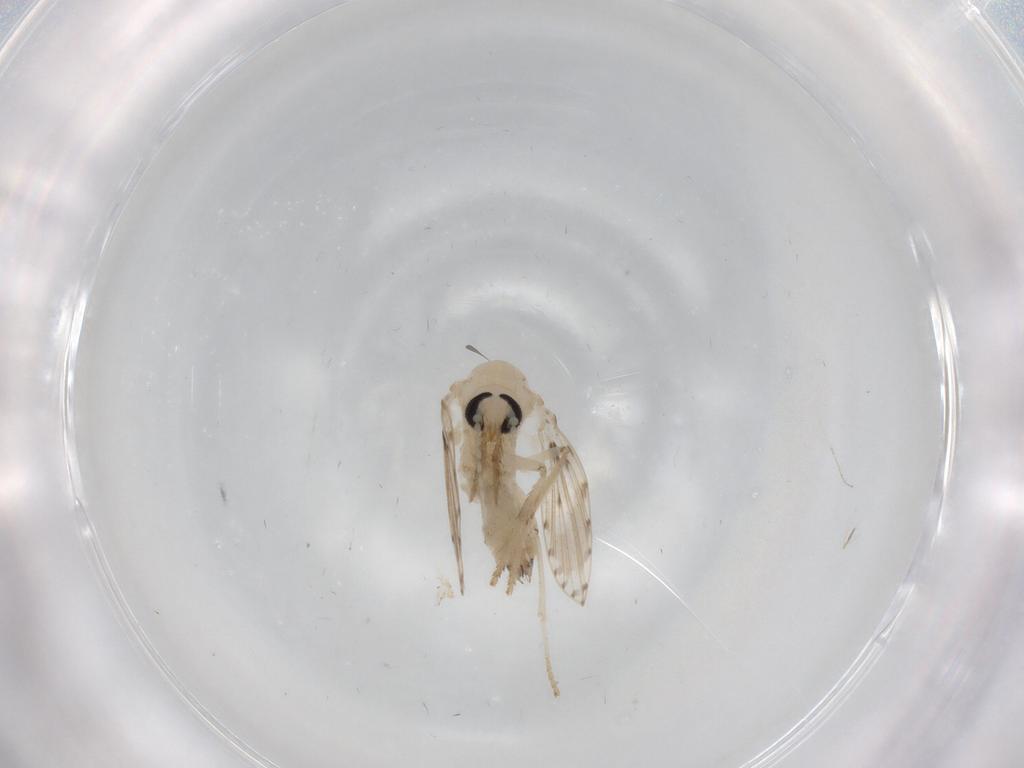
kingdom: Animalia
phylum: Arthropoda
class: Insecta
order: Diptera
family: Psychodidae
